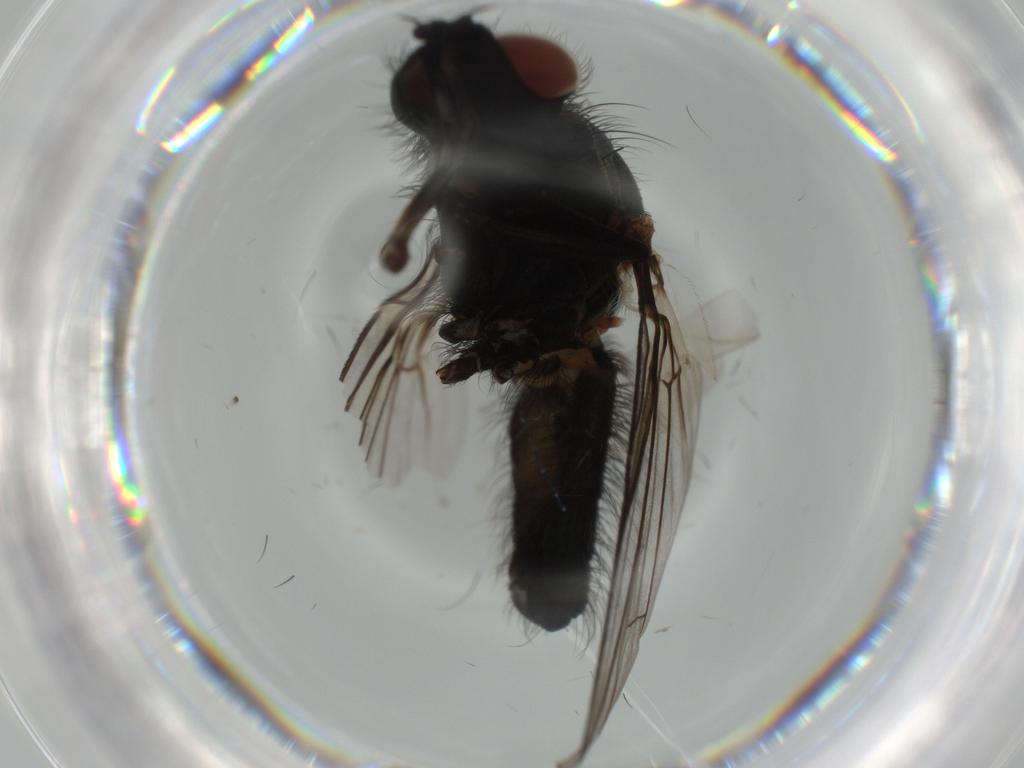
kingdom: Animalia
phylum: Arthropoda
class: Insecta
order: Diptera
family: Anthomyiidae
